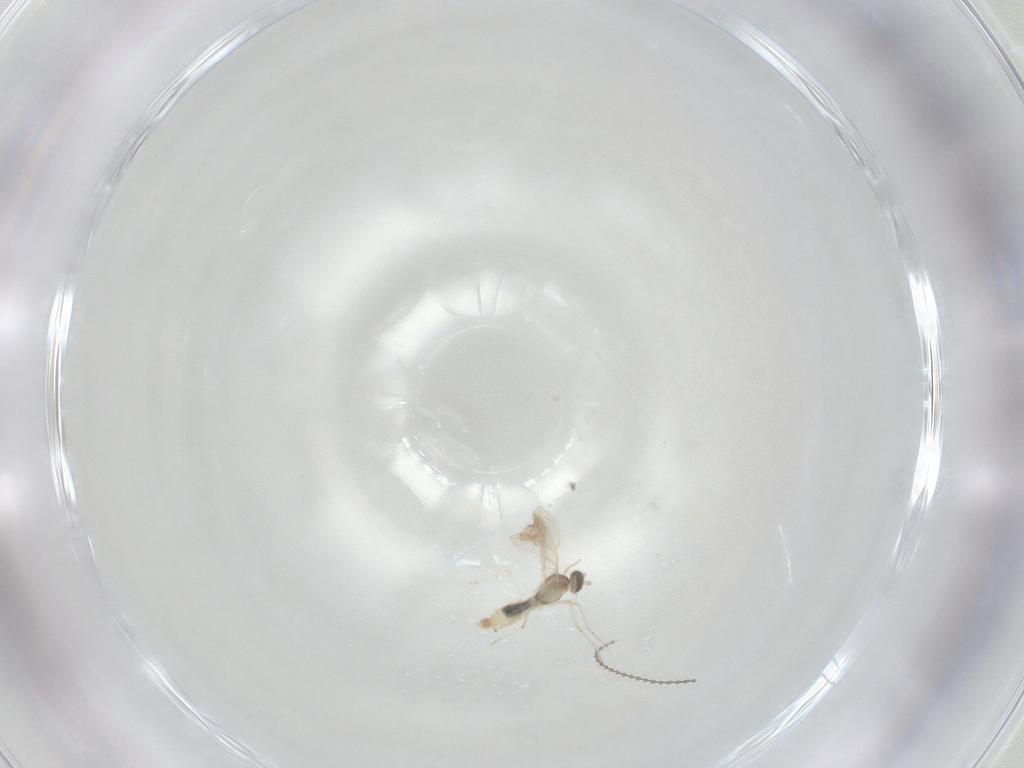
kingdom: Animalia
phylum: Arthropoda
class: Insecta
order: Diptera
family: Cecidomyiidae
